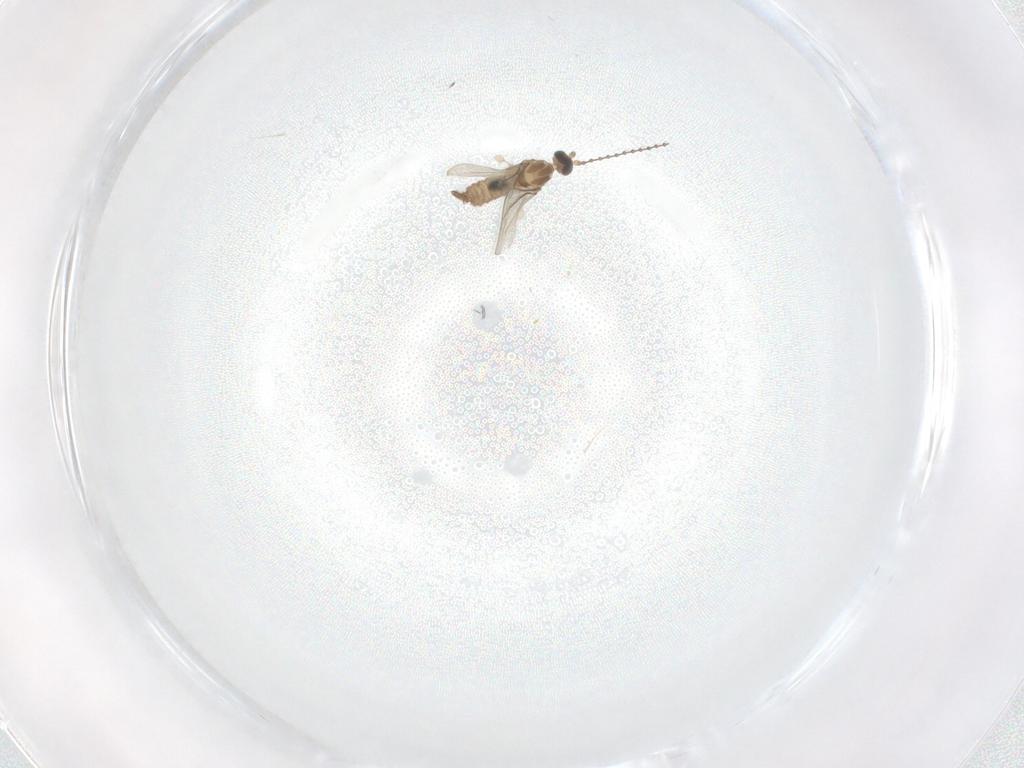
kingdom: Animalia
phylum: Arthropoda
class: Insecta
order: Diptera
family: Cecidomyiidae
